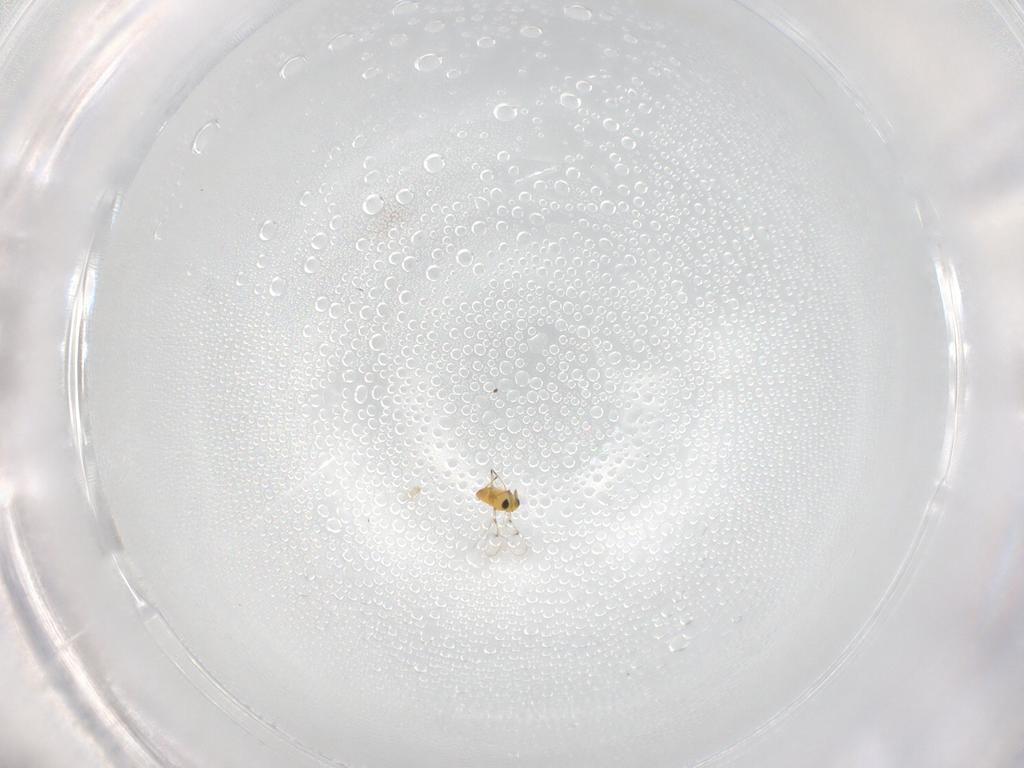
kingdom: Animalia
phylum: Arthropoda
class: Insecta
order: Hymenoptera
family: Trichogrammatidae
